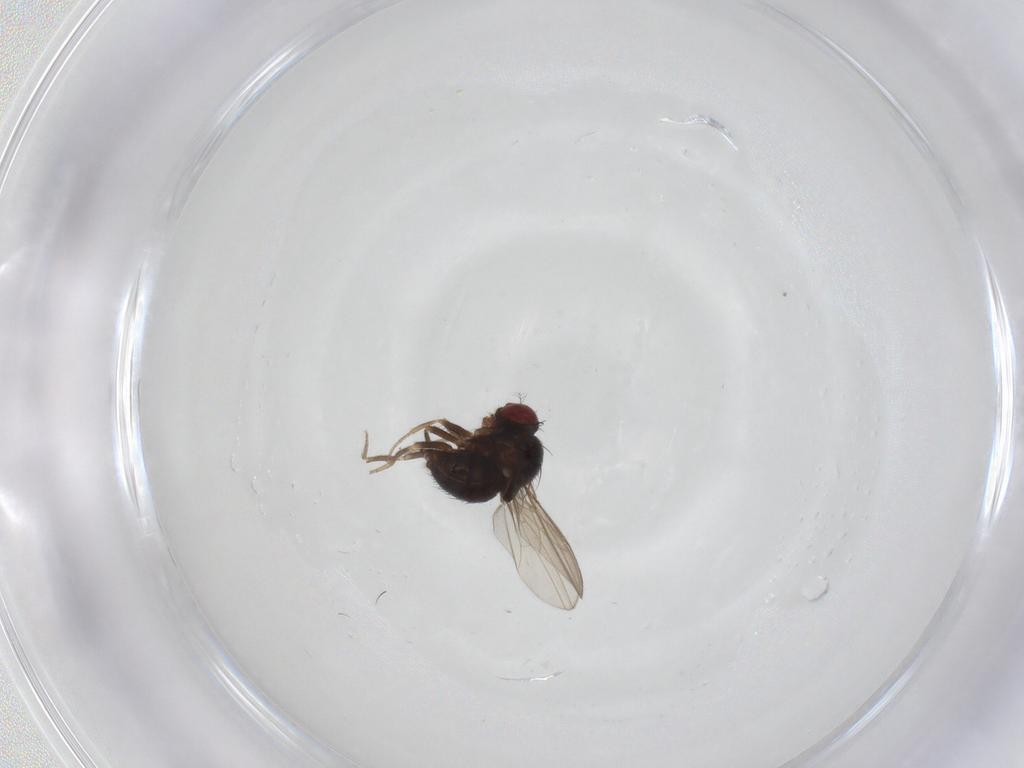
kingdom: Animalia
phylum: Arthropoda
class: Insecta
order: Diptera
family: Drosophilidae
